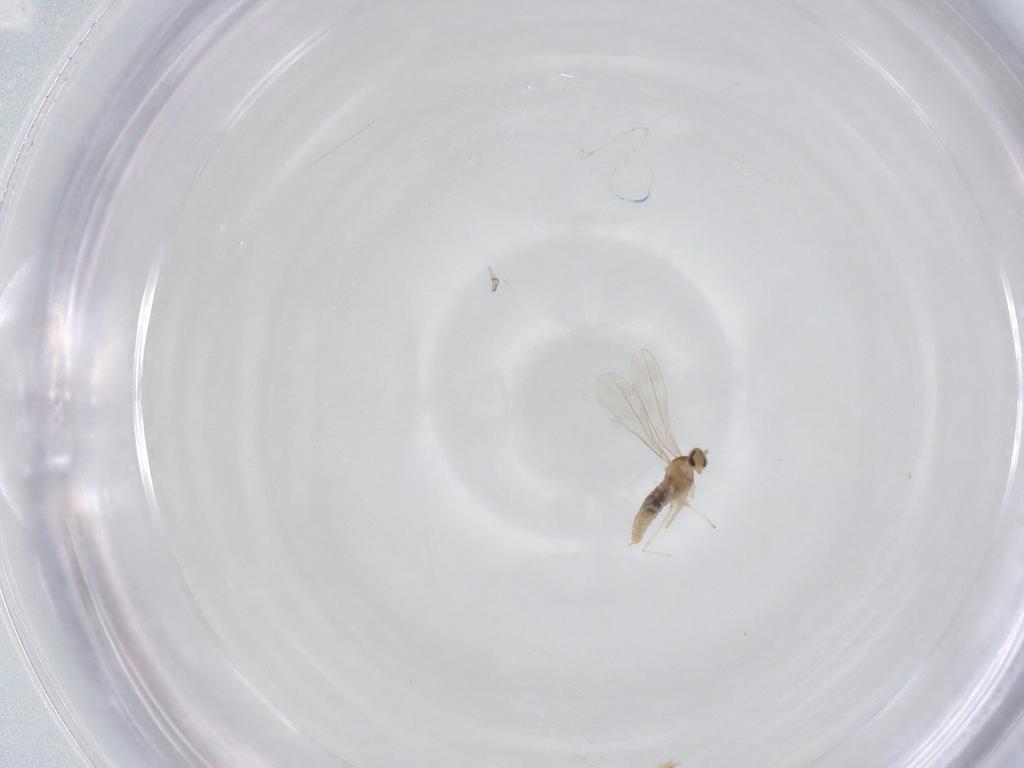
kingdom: Animalia
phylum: Arthropoda
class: Insecta
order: Diptera
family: Cecidomyiidae
